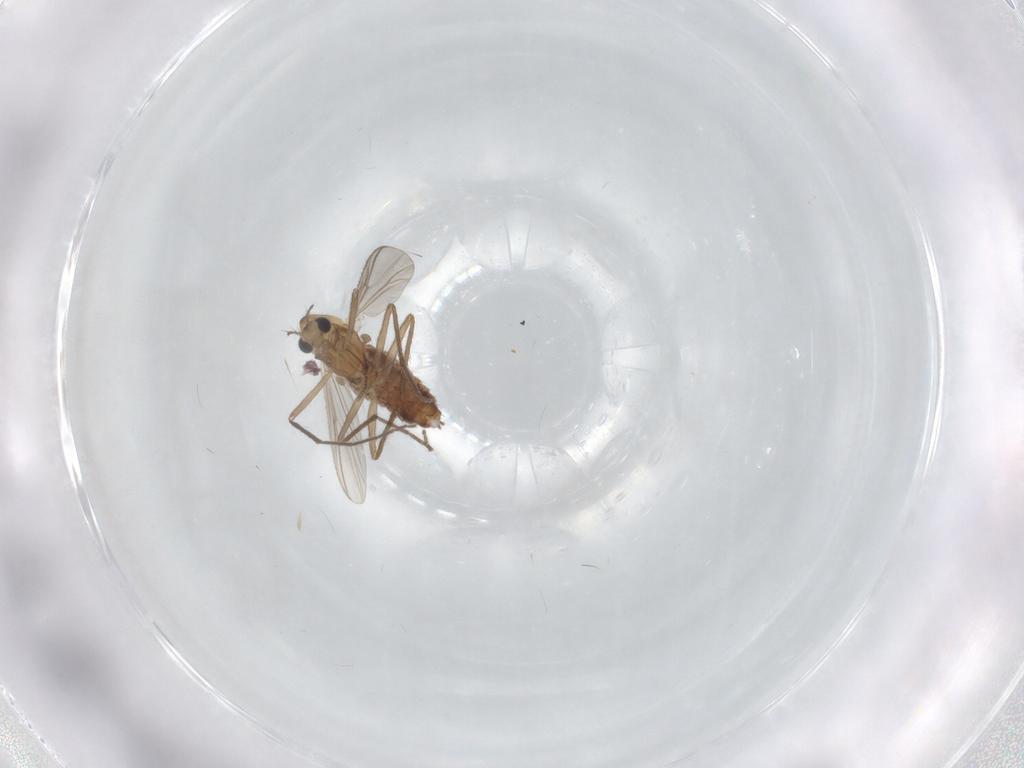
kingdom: Animalia
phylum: Arthropoda
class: Insecta
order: Diptera
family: Chironomidae
